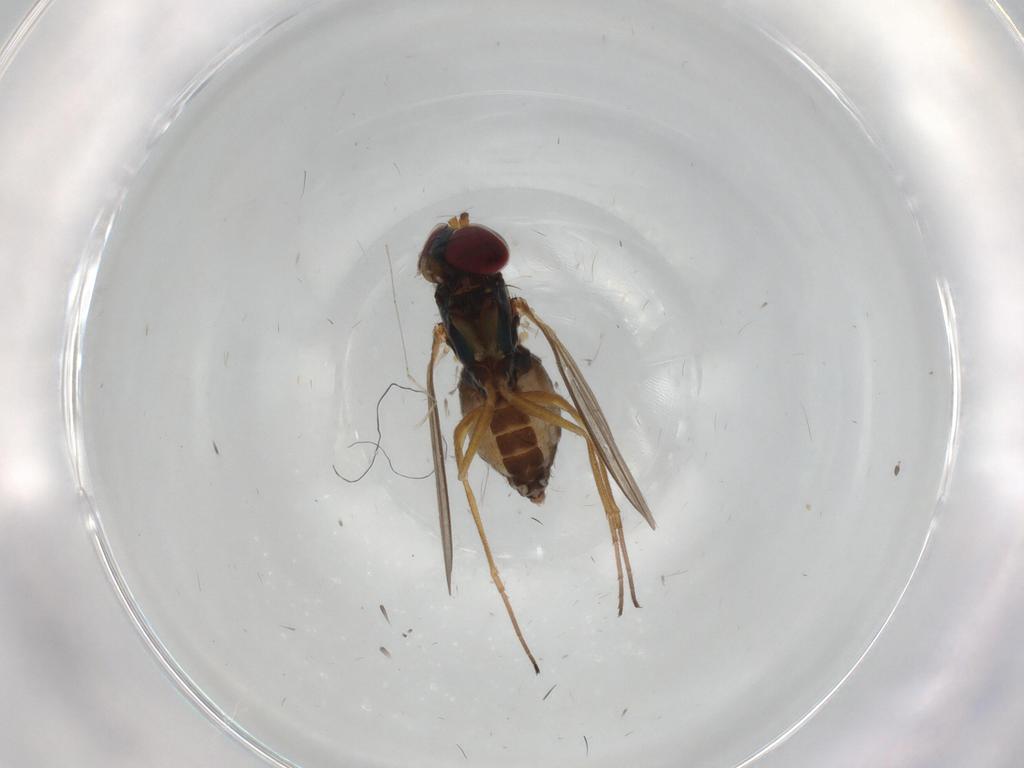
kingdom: Animalia
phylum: Arthropoda
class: Insecta
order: Diptera
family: Dolichopodidae
